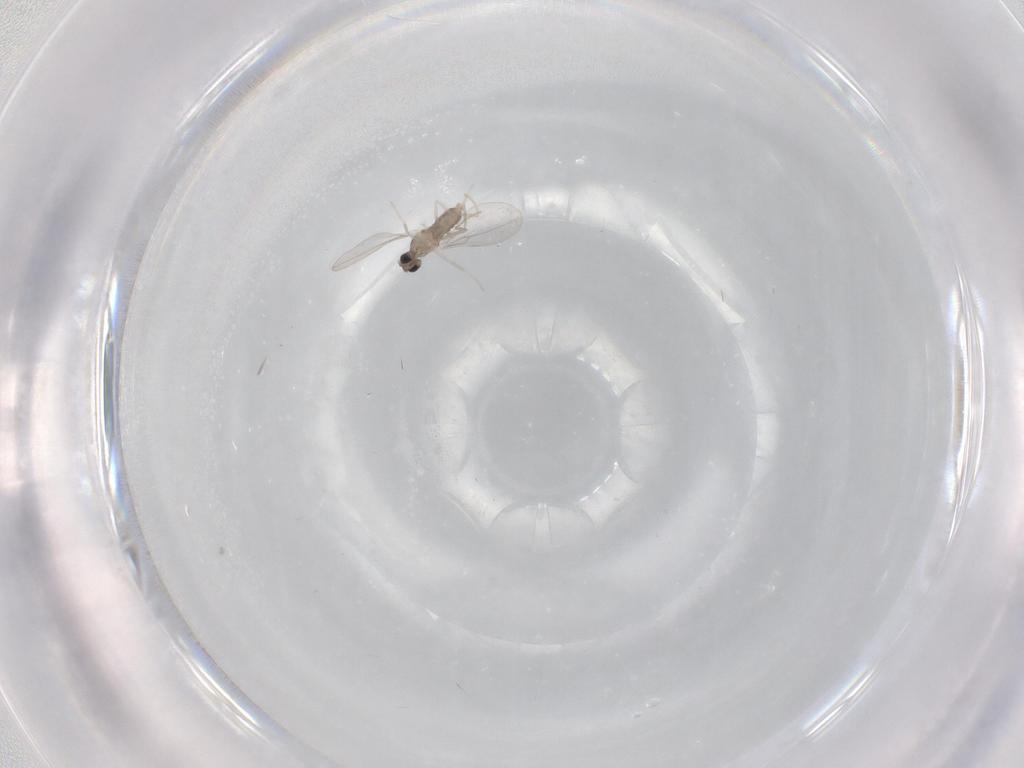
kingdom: Animalia
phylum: Arthropoda
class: Insecta
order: Diptera
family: Cecidomyiidae
